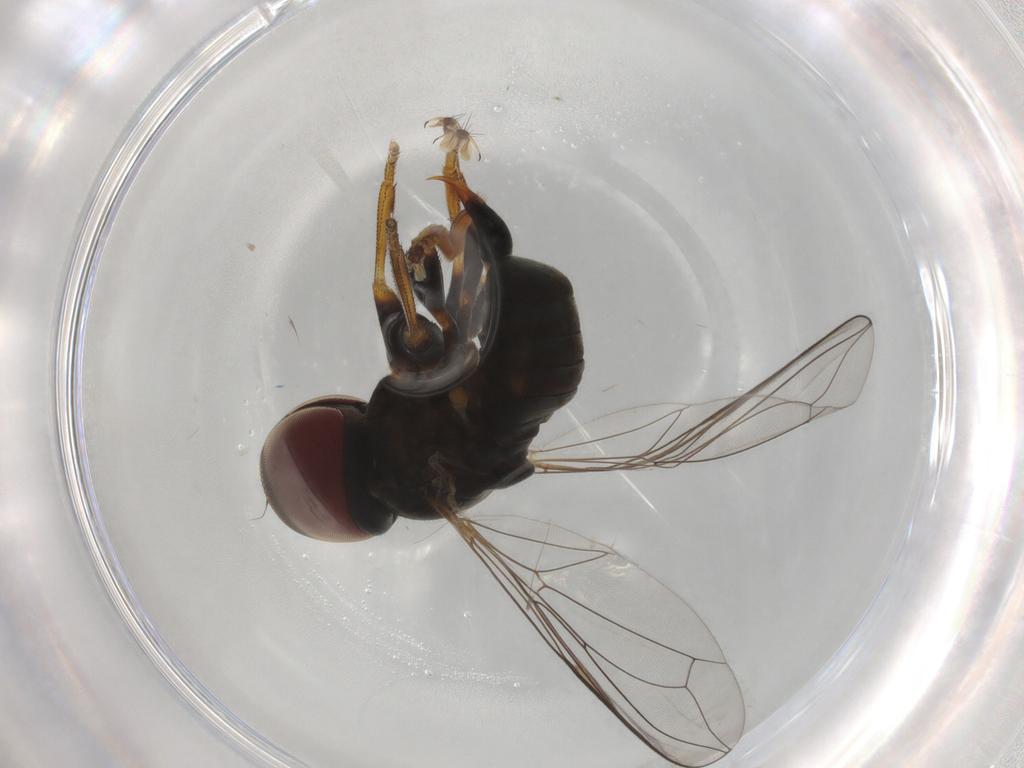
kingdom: Animalia
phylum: Arthropoda
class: Insecta
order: Diptera
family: Pipunculidae
